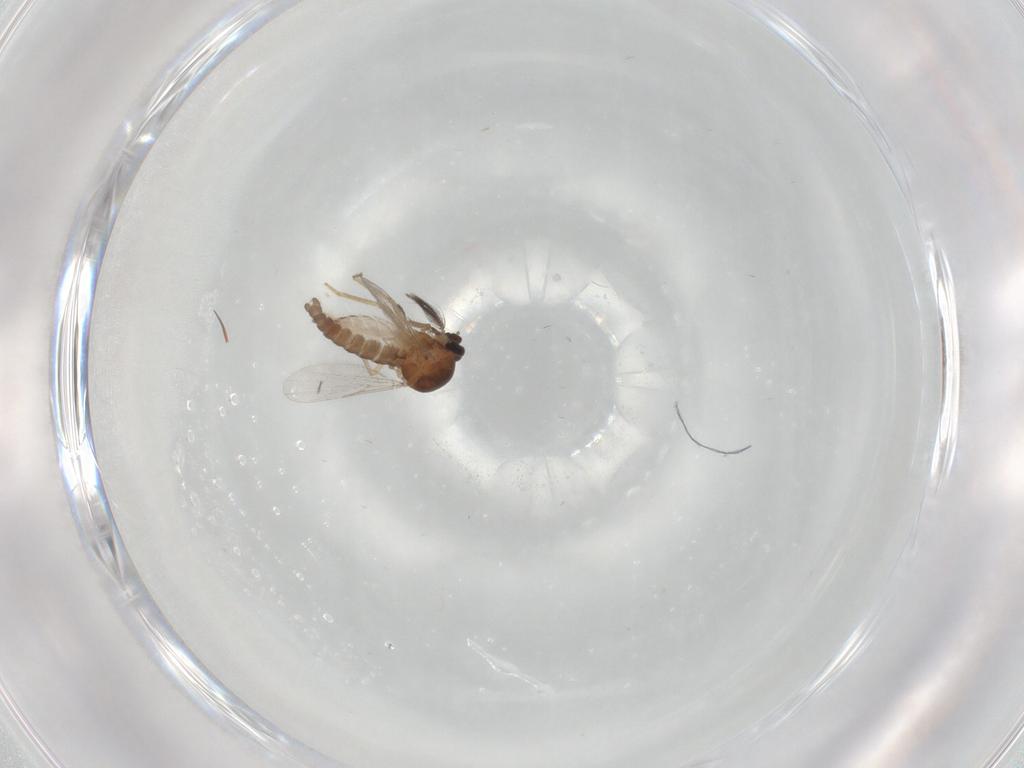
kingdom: Animalia
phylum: Arthropoda
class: Insecta
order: Diptera
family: Ceratopogonidae
